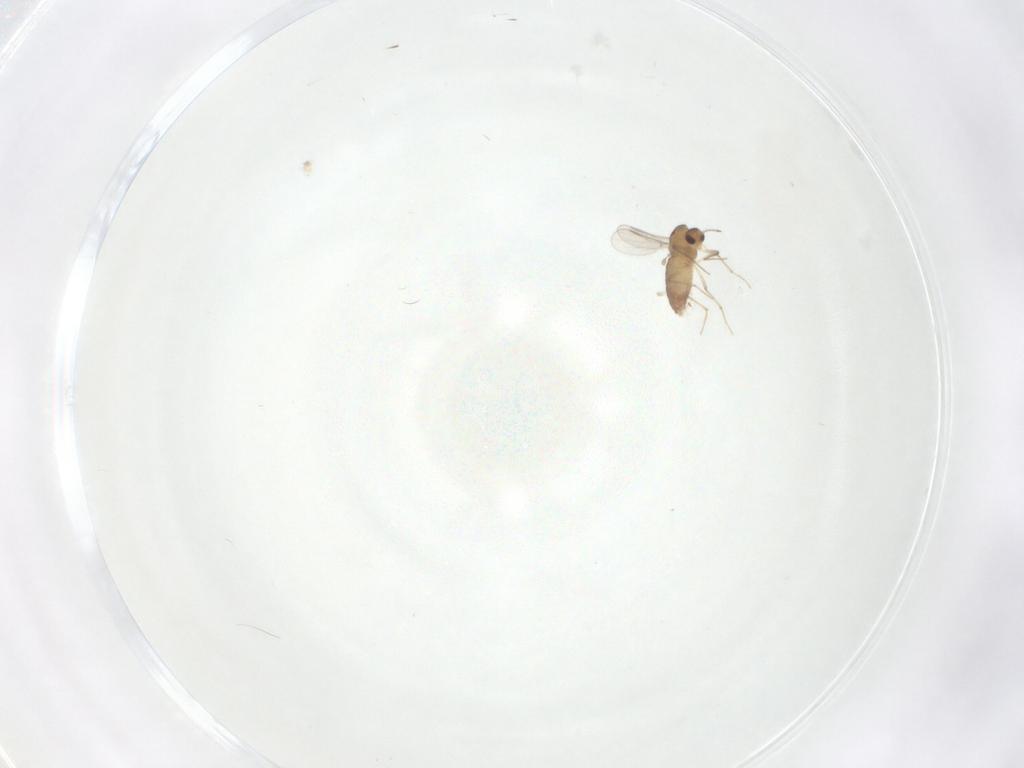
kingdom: Animalia
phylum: Arthropoda
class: Insecta
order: Diptera
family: Chironomidae
